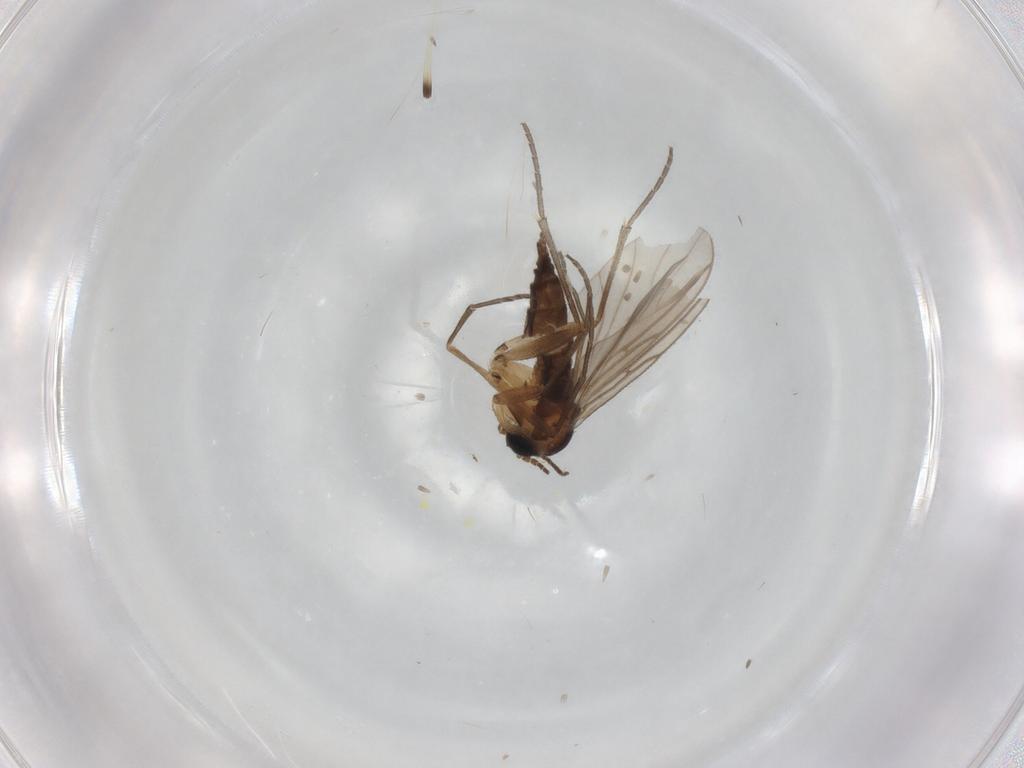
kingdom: Animalia
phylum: Arthropoda
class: Insecta
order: Diptera
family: Sciaridae
